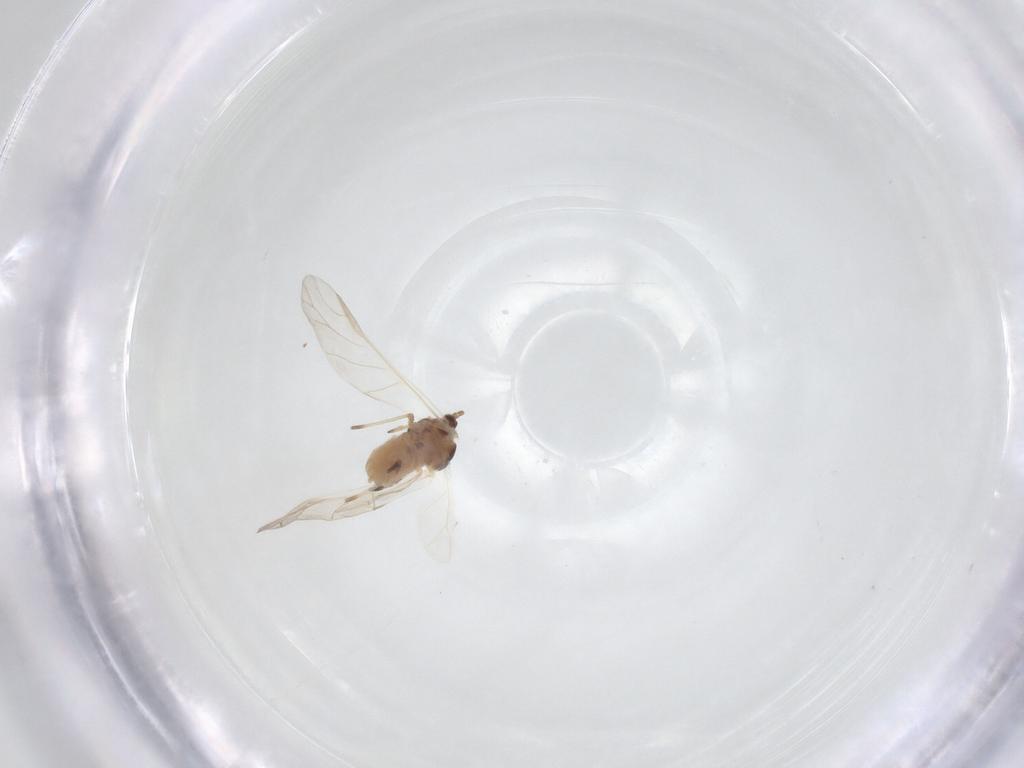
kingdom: Animalia
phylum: Arthropoda
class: Insecta
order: Hemiptera
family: Aphididae
